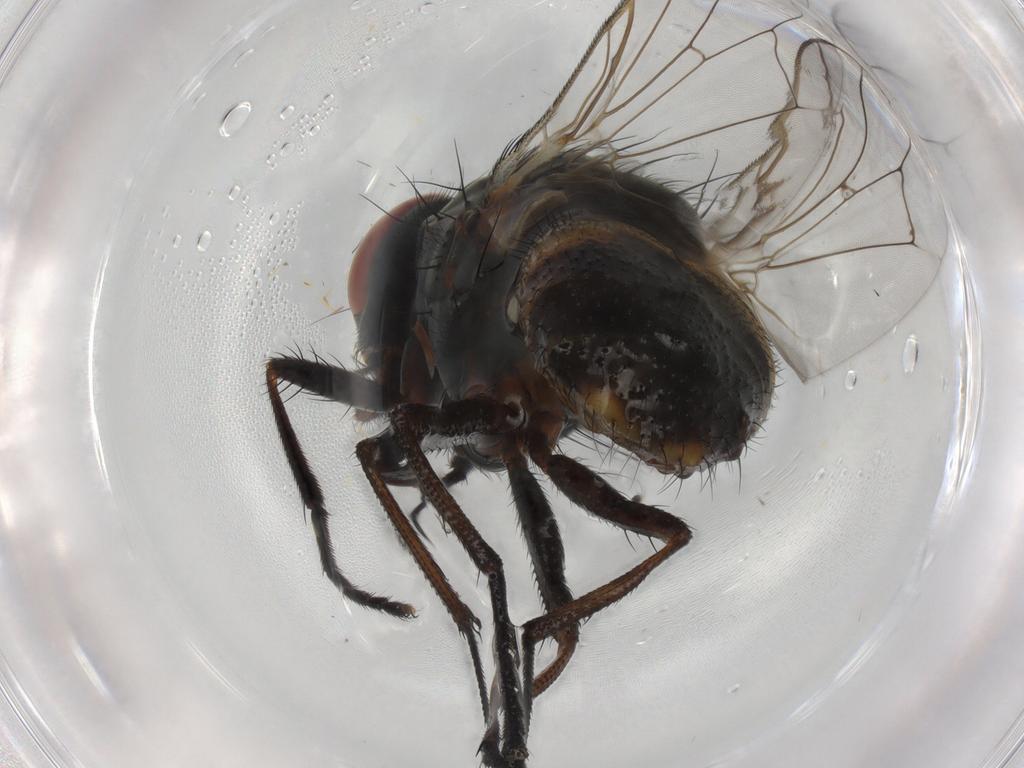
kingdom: Animalia
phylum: Arthropoda
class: Insecta
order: Diptera
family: Muscidae
